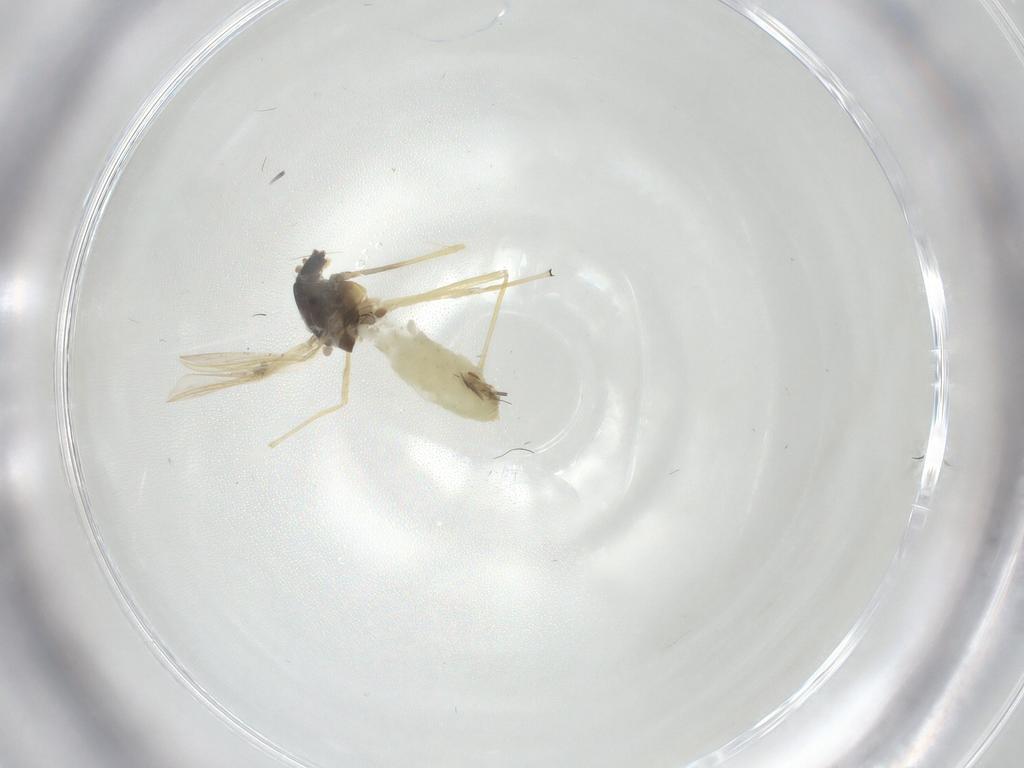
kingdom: Animalia
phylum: Arthropoda
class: Insecta
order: Diptera
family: Chironomidae
